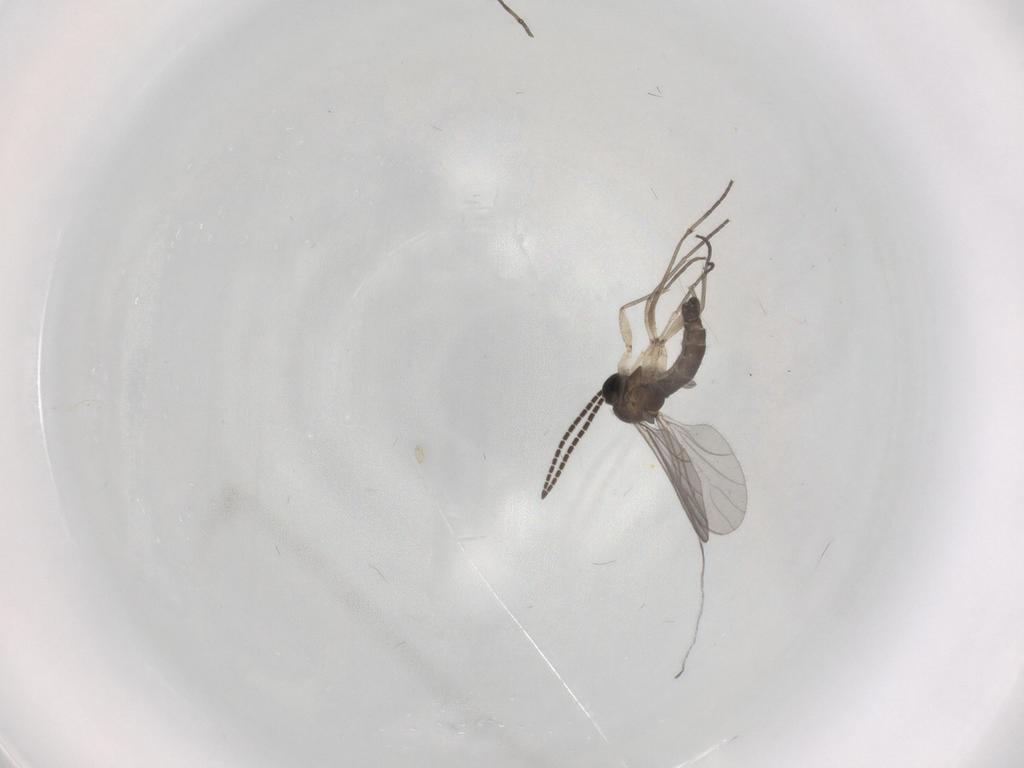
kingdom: Animalia
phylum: Arthropoda
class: Insecta
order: Diptera
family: Sciaridae
